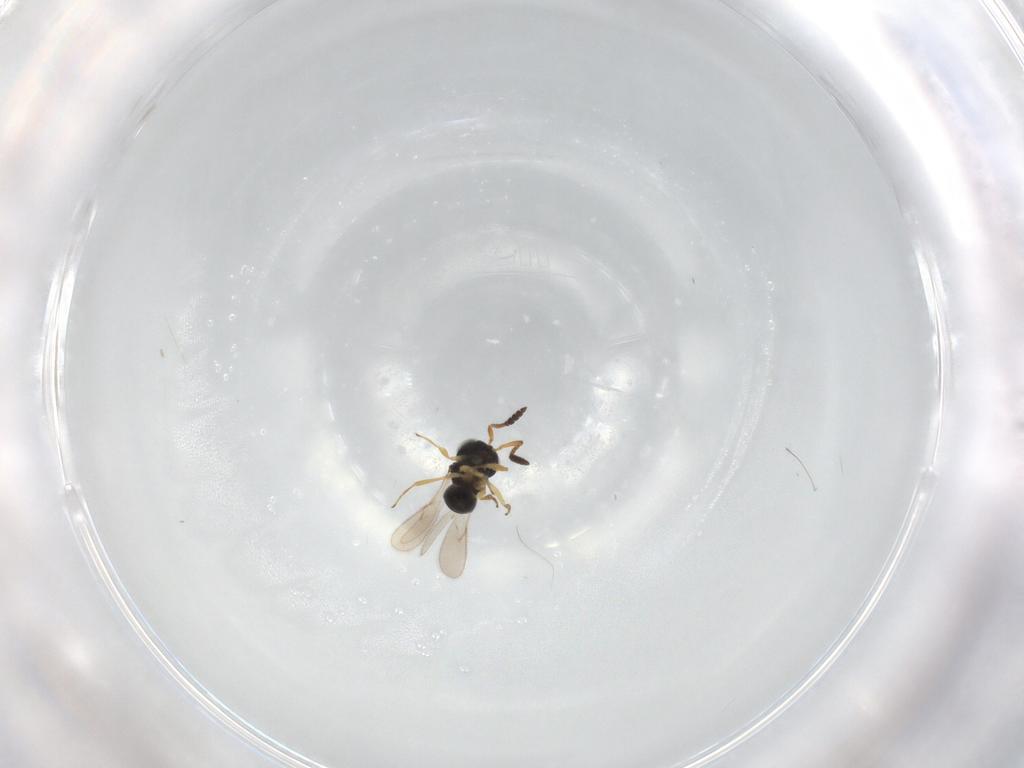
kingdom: Animalia
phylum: Arthropoda
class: Insecta
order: Hymenoptera
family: Scelionidae
